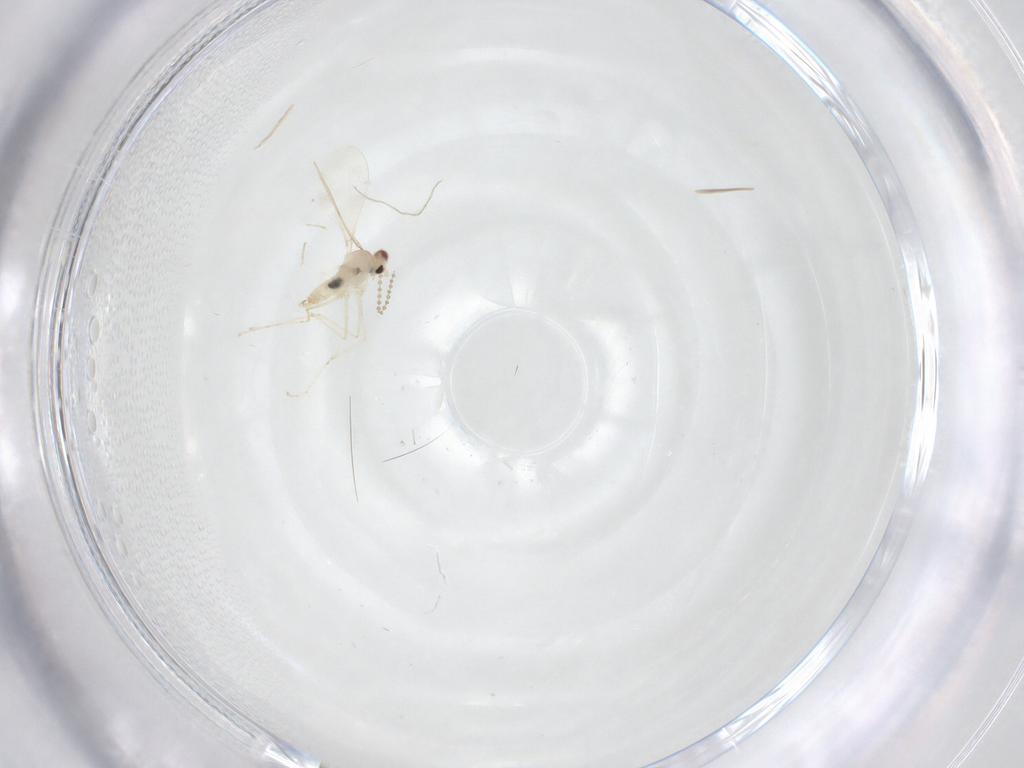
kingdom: Animalia
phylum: Arthropoda
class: Insecta
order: Diptera
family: Cecidomyiidae
